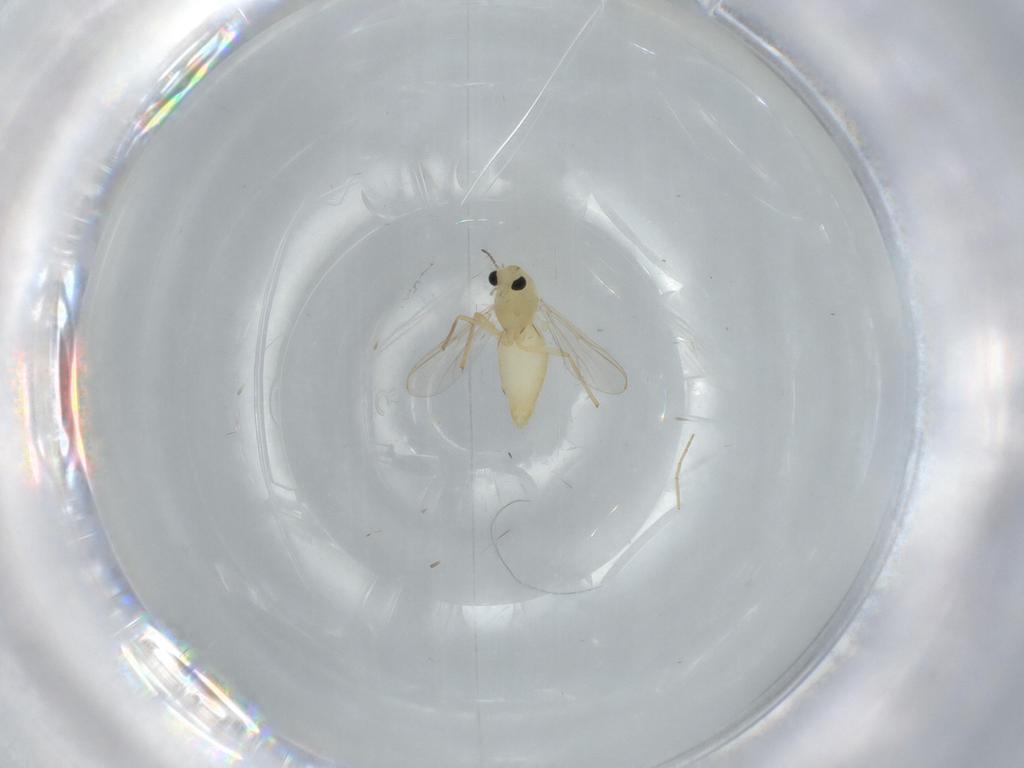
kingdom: Animalia
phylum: Arthropoda
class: Insecta
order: Diptera
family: Chironomidae
